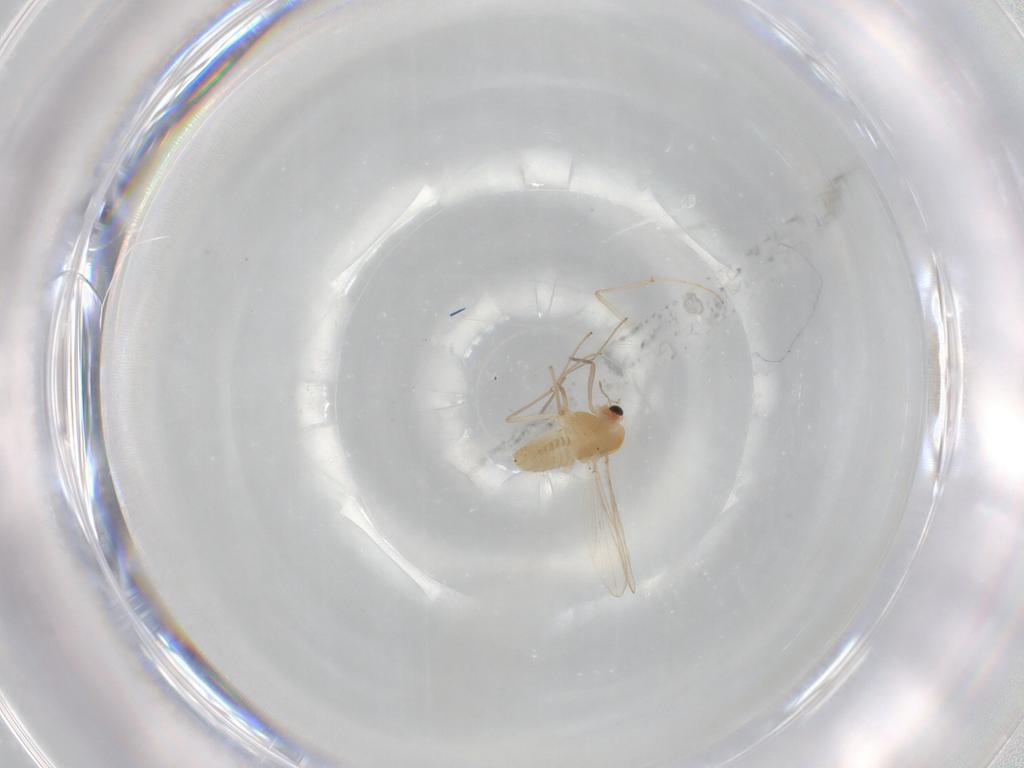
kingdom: Animalia
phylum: Arthropoda
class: Insecta
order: Diptera
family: Chironomidae
